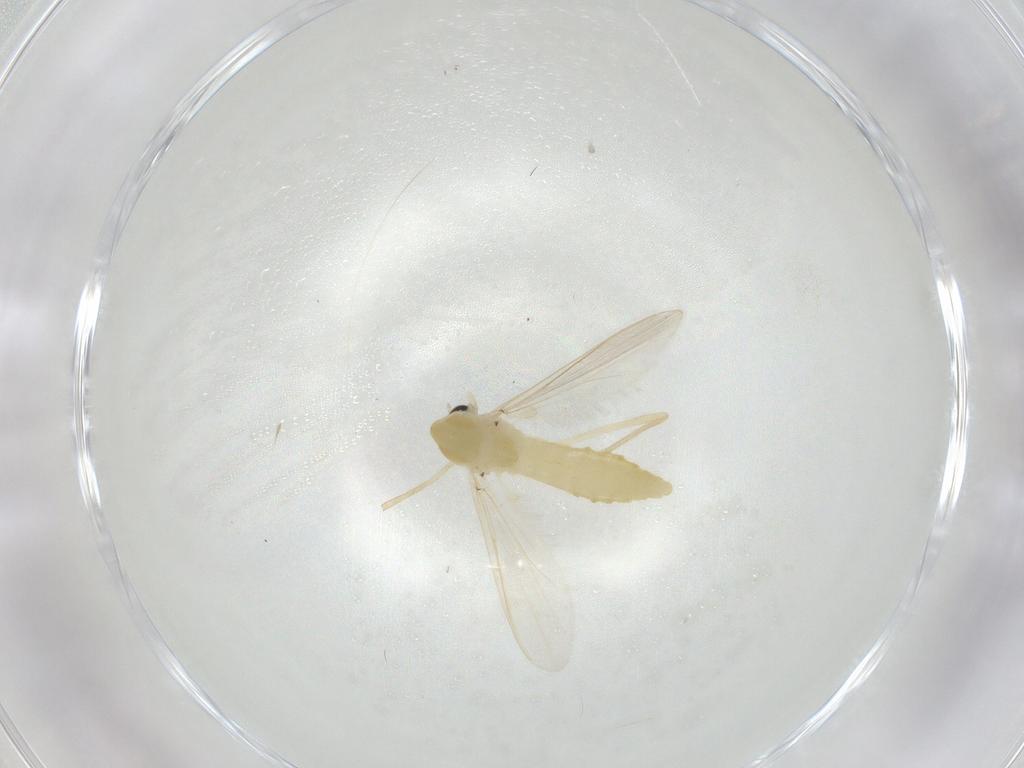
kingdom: Animalia
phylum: Arthropoda
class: Insecta
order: Diptera
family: Chironomidae
